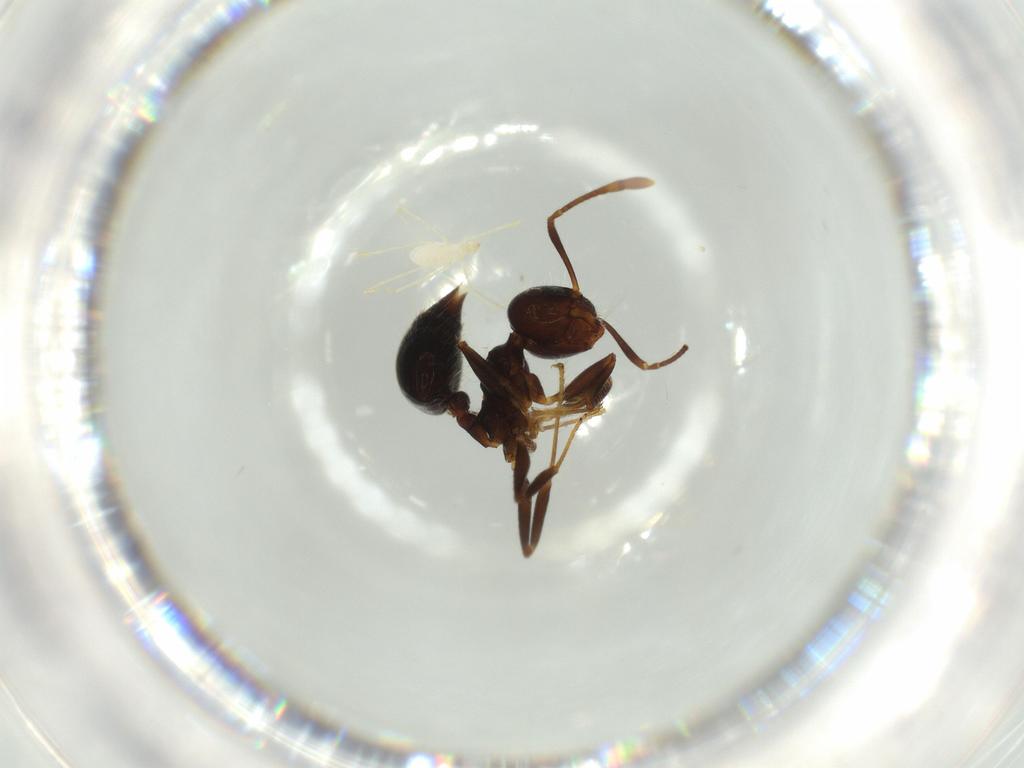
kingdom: Animalia
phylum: Arthropoda
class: Insecta
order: Hymenoptera
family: Formicidae
